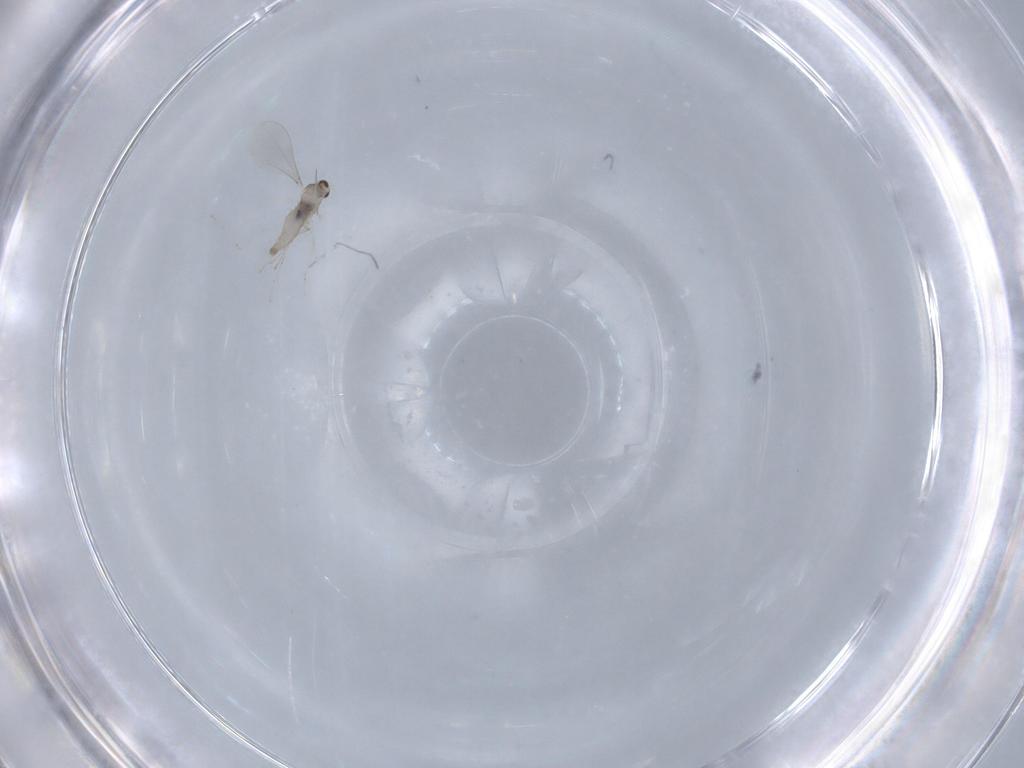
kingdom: Animalia
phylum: Arthropoda
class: Insecta
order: Diptera
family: Cecidomyiidae
